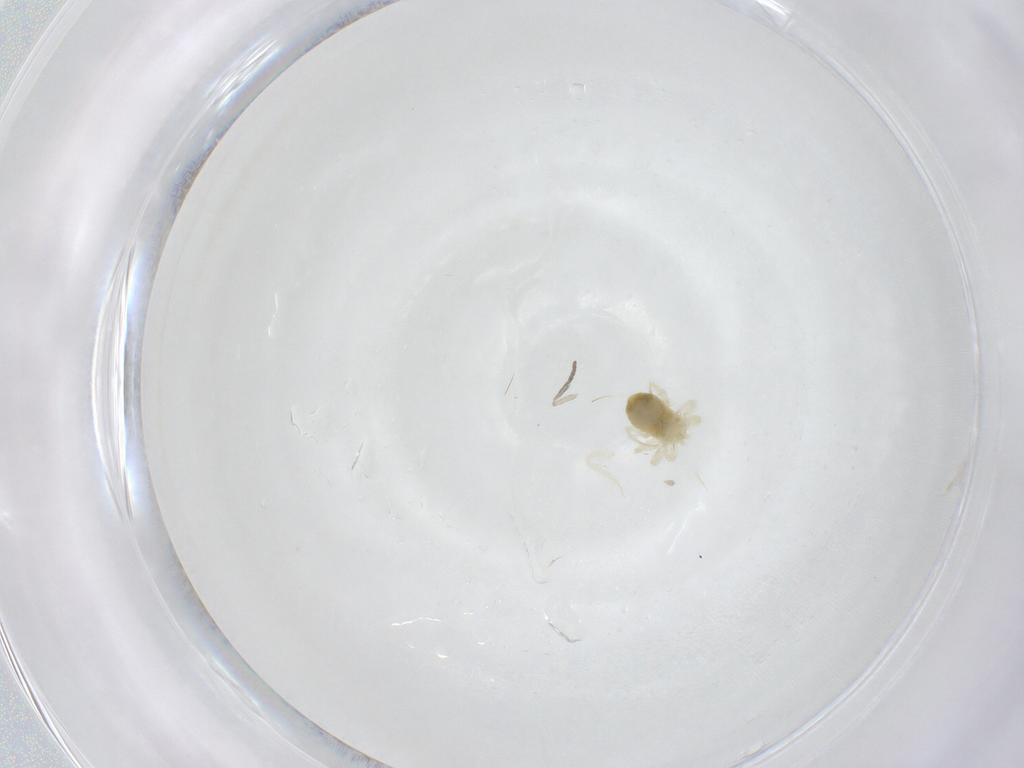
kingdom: Animalia
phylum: Arthropoda
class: Insecta
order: Diptera
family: Psychodidae
